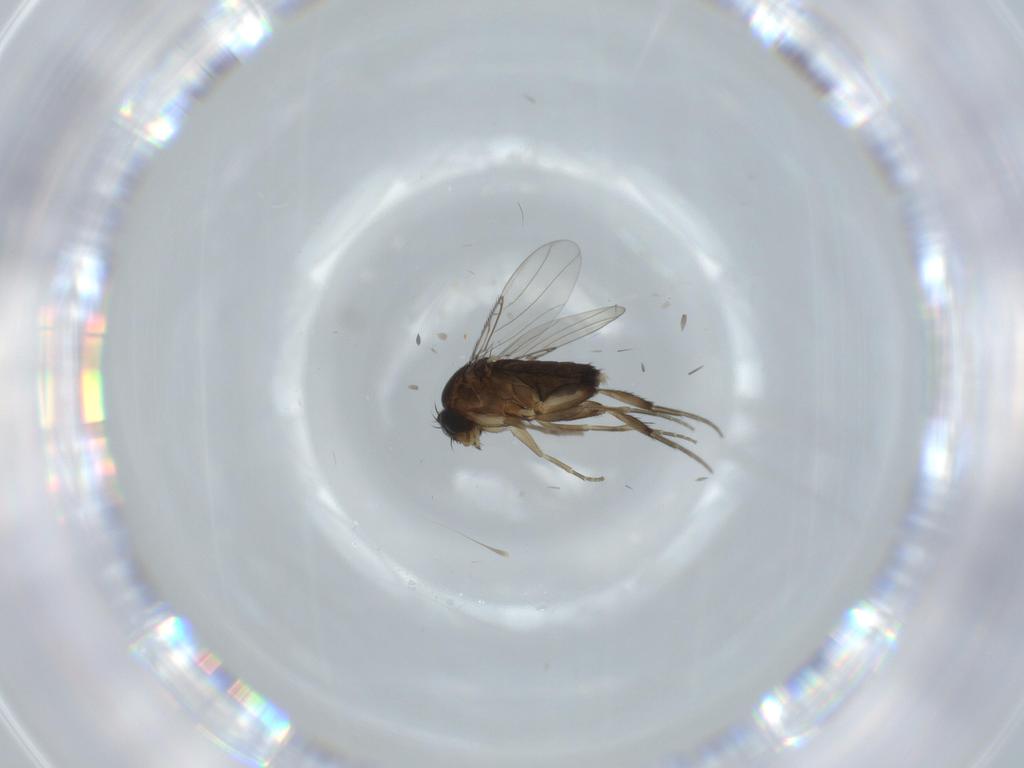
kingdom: Animalia
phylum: Arthropoda
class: Insecta
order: Diptera
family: Phoridae
